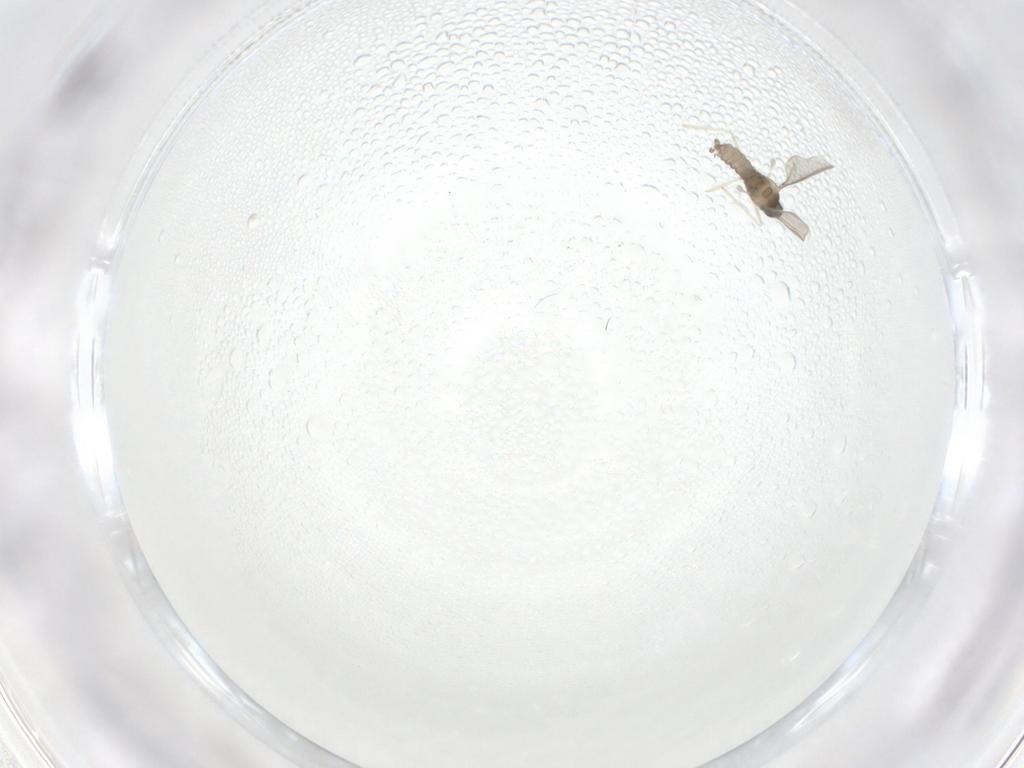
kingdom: Animalia
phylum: Arthropoda
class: Insecta
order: Diptera
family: Cecidomyiidae
